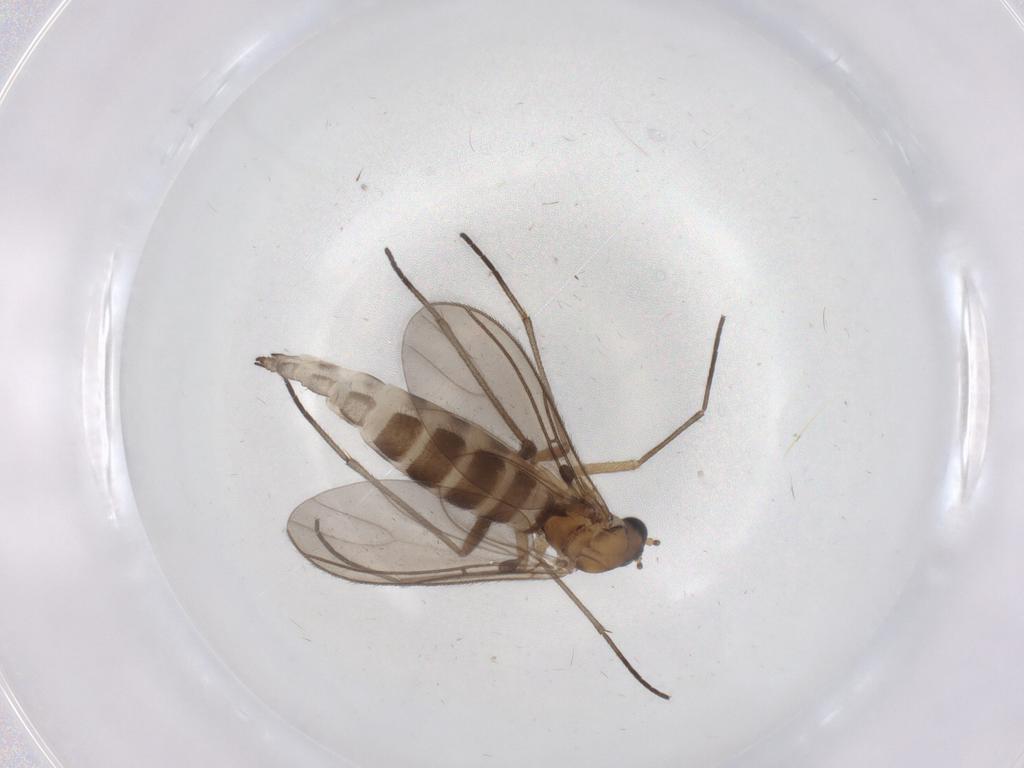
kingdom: Animalia
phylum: Arthropoda
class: Insecta
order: Diptera
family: Sciaridae
